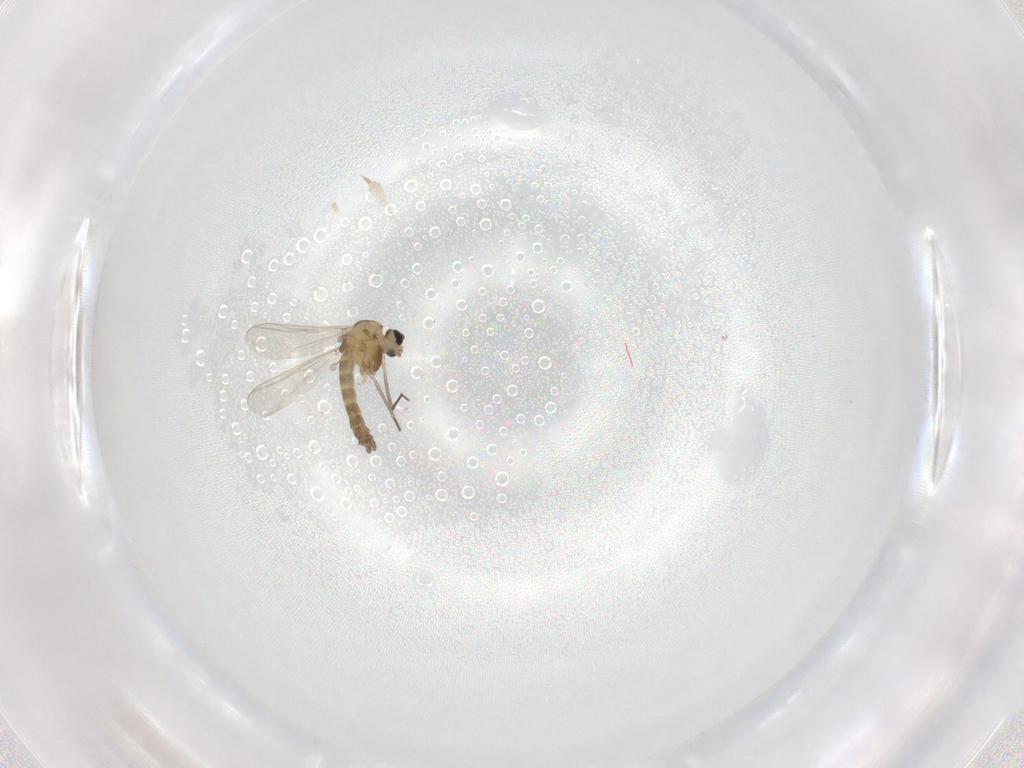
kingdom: Animalia
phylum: Arthropoda
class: Insecta
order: Diptera
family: Chironomidae
